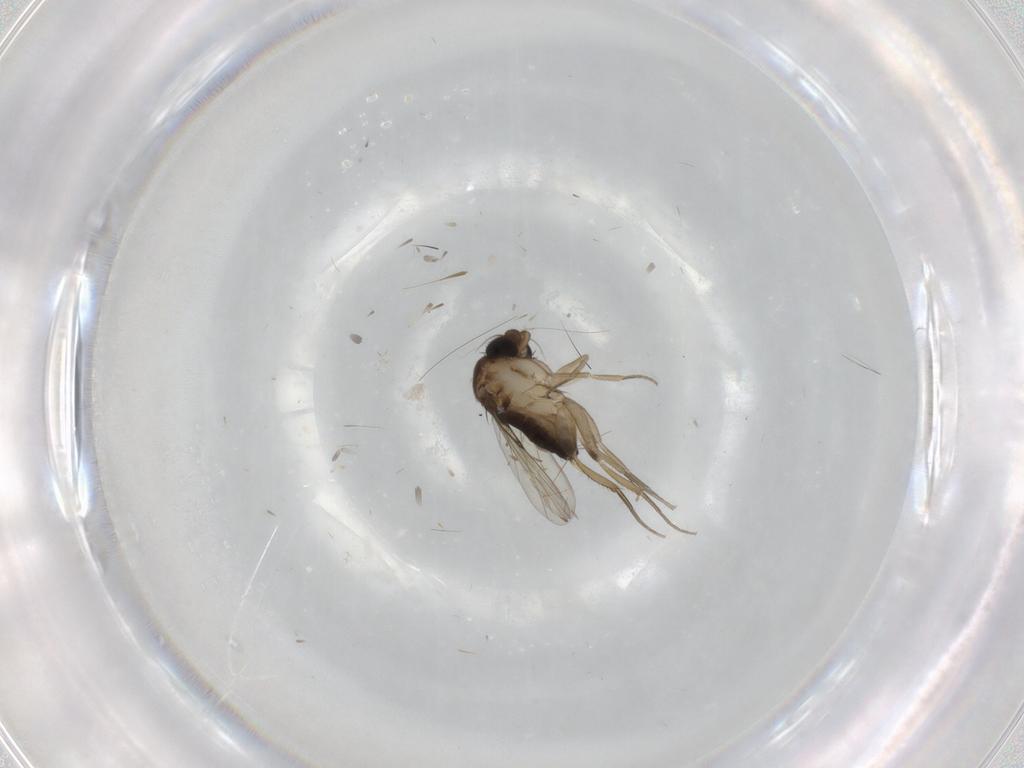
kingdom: Animalia
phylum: Arthropoda
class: Insecta
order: Diptera
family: Phoridae
